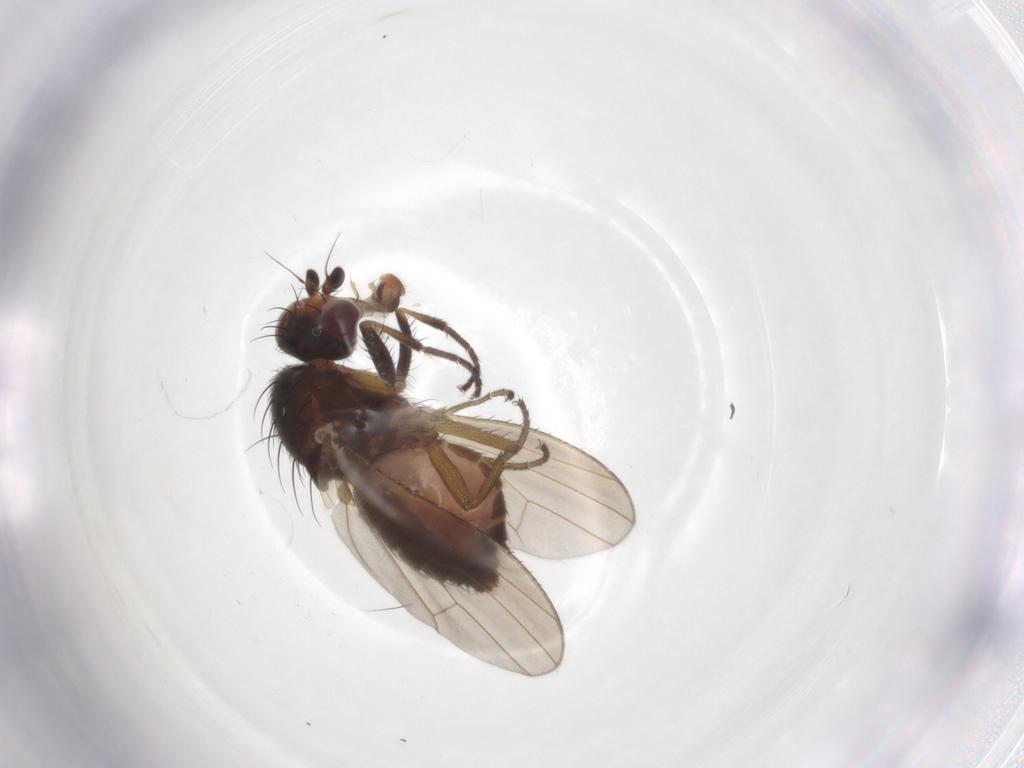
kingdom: Animalia
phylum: Arthropoda
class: Insecta
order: Diptera
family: Heleomyzidae
